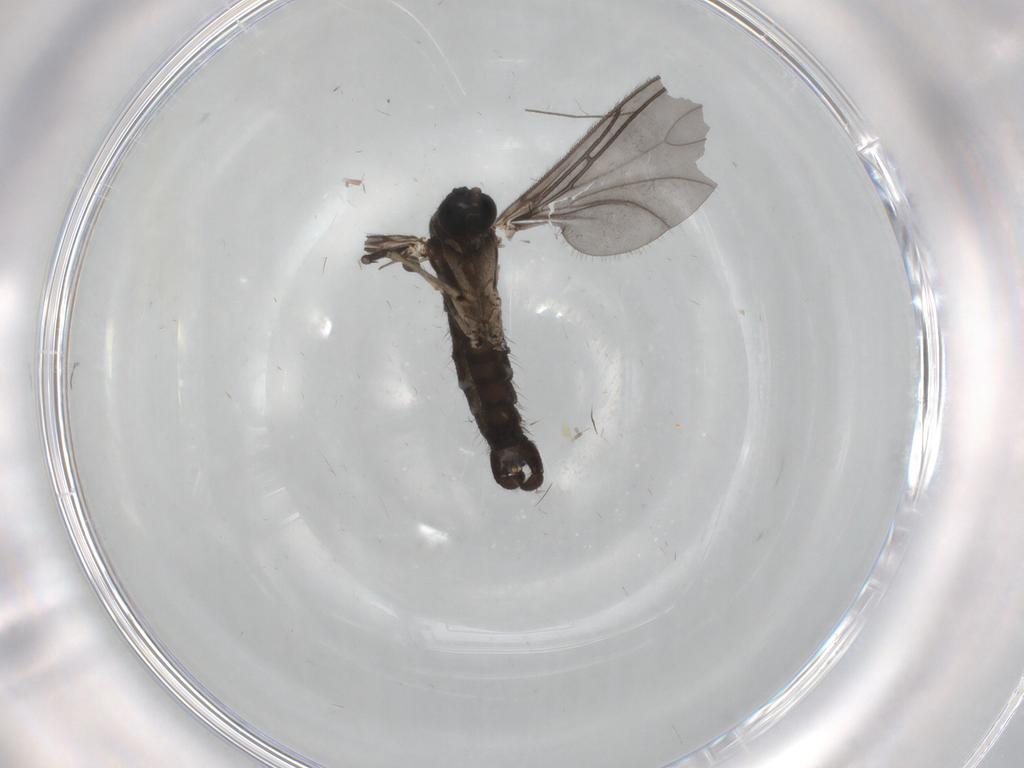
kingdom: Animalia
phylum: Arthropoda
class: Insecta
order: Diptera
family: Sciaridae
